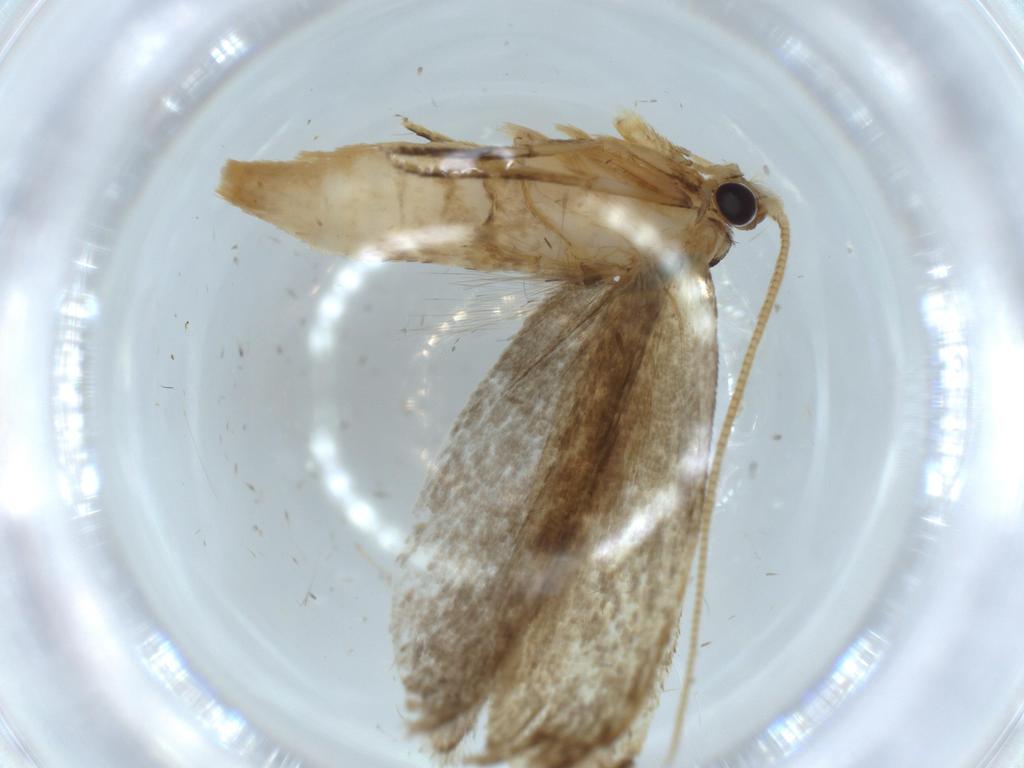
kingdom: Animalia
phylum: Arthropoda
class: Insecta
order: Lepidoptera
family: Tineidae
